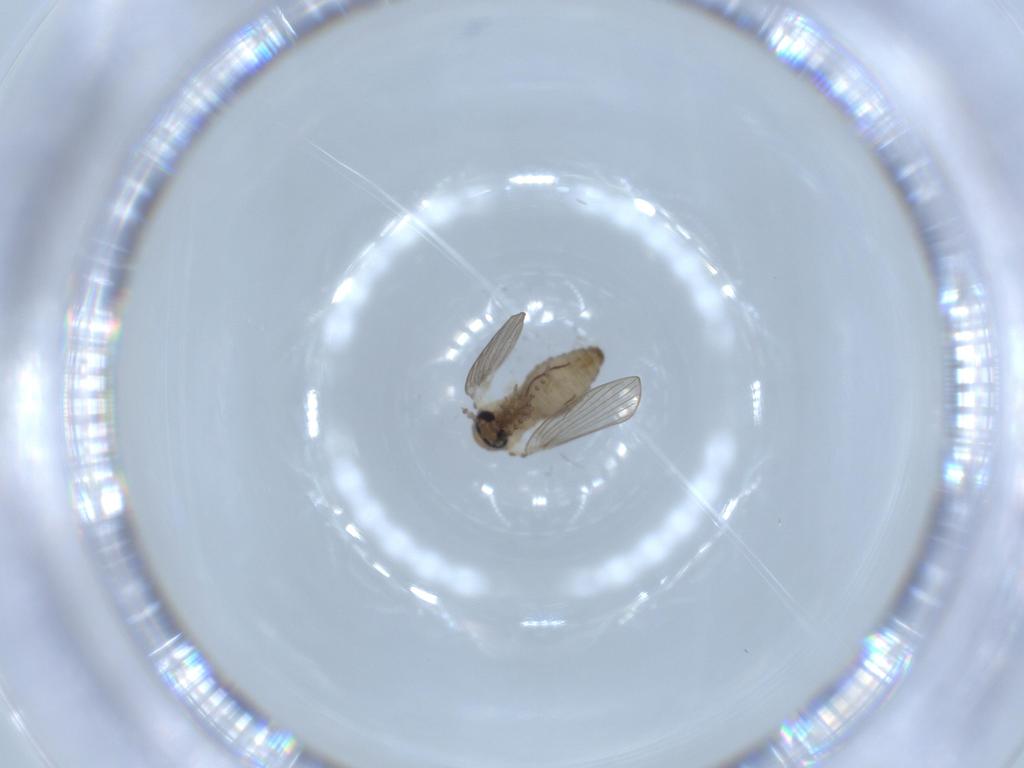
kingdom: Animalia
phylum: Arthropoda
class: Insecta
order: Diptera
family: Psychodidae
